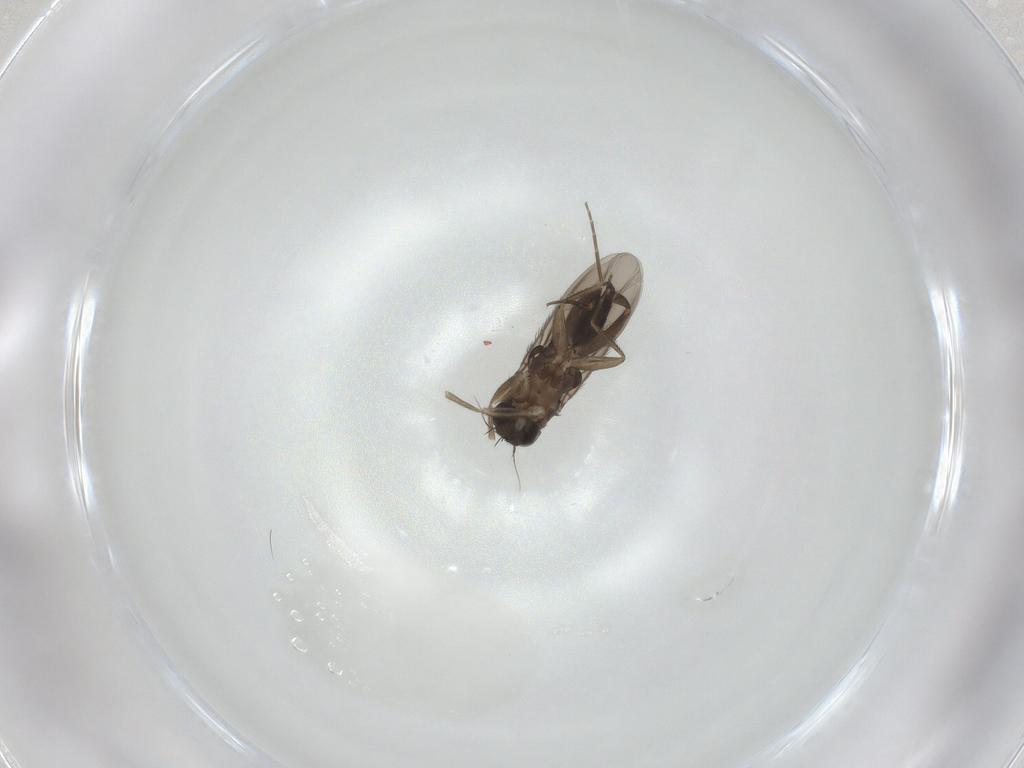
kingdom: Animalia
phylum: Arthropoda
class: Insecta
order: Diptera
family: Phoridae
